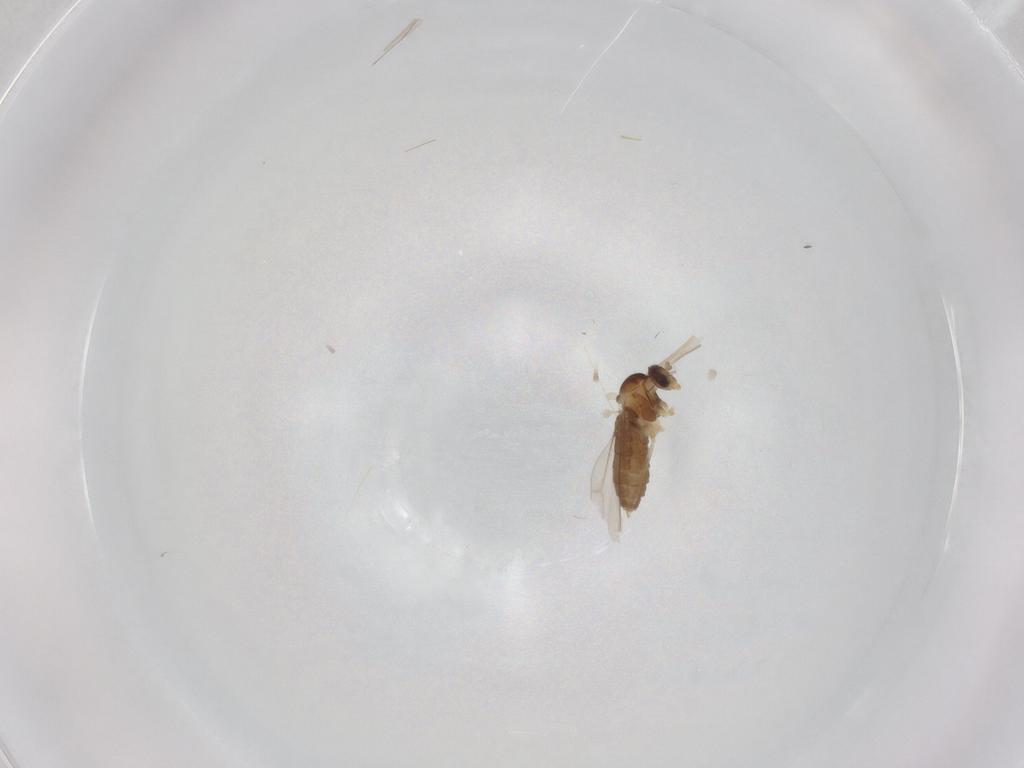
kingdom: Animalia
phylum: Arthropoda
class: Insecta
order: Diptera
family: Cecidomyiidae
